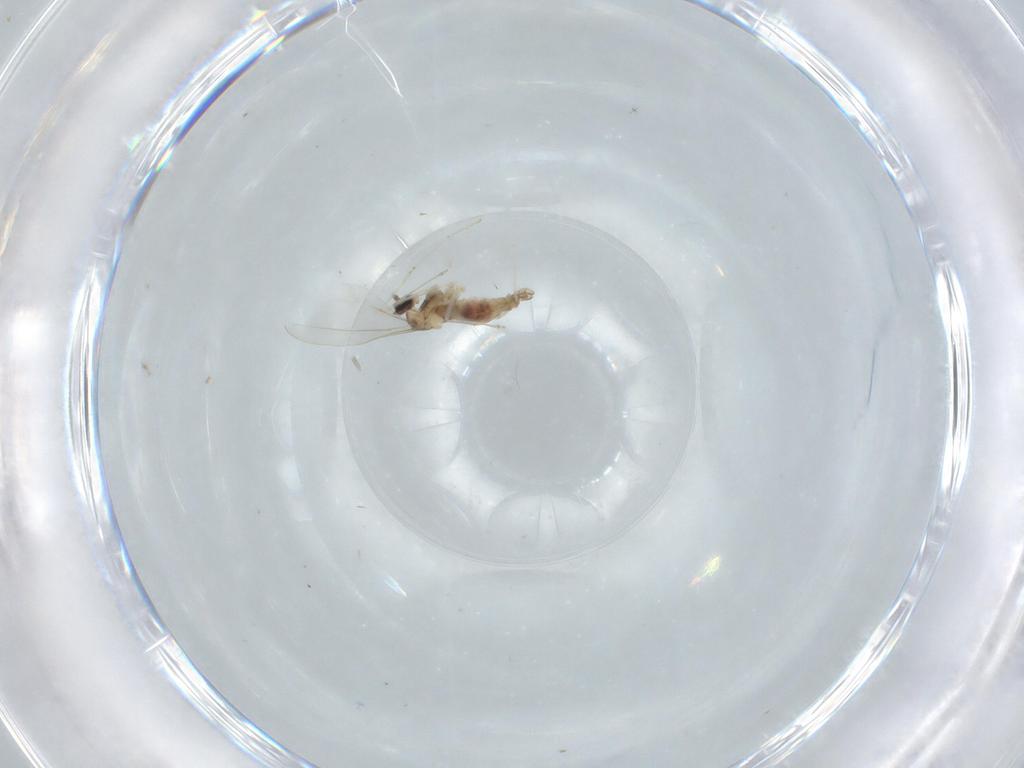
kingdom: Animalia
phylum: Arthropoda
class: Insecta
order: Diptera
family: Cecidomyiidae
